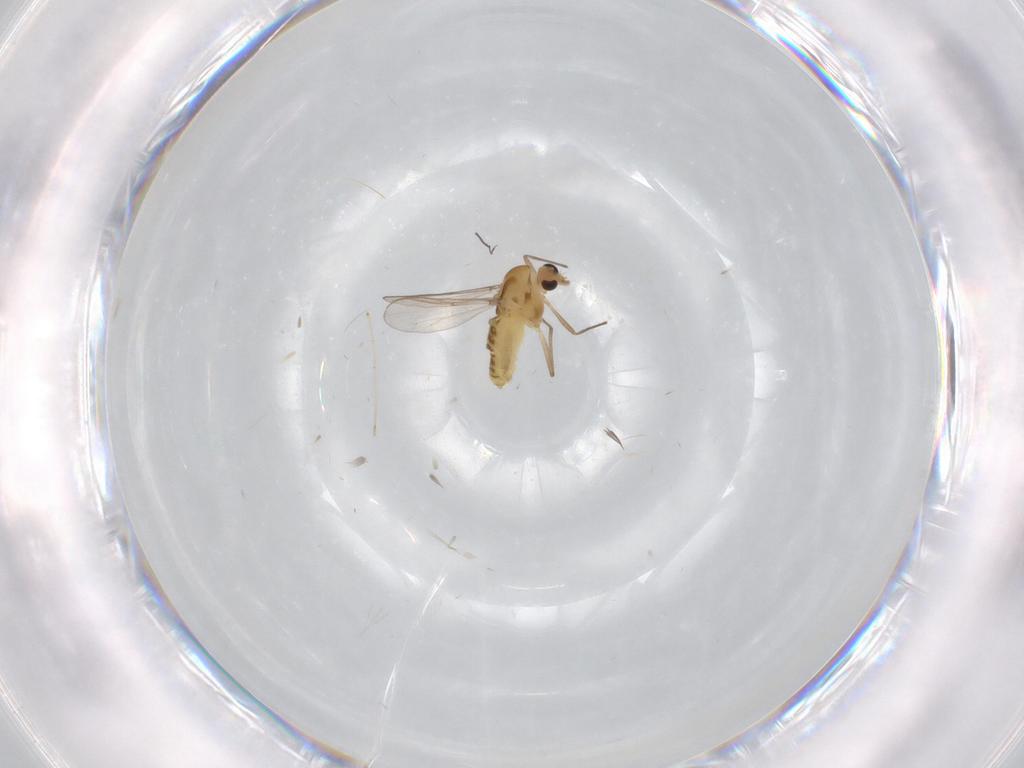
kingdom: Animalia
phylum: Arthropoda
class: Insecta
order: Diptera
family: Chironomidae
